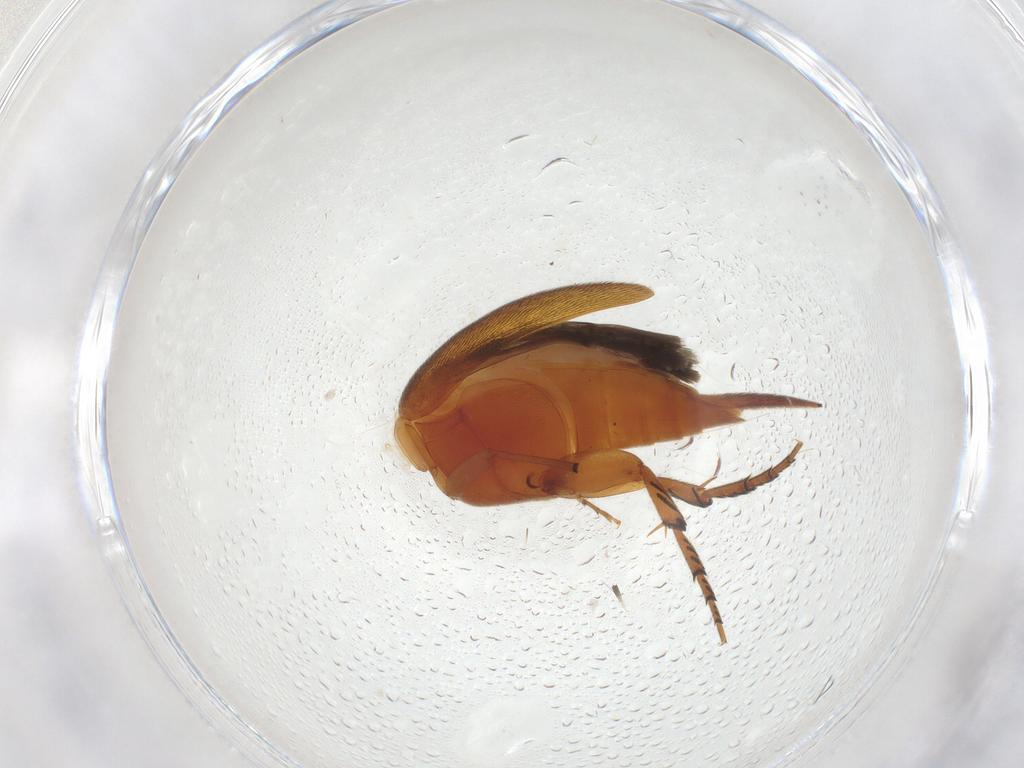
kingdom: Animalia
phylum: Arthropoda
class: Insecta
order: Coleoptera
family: Mordellidae
